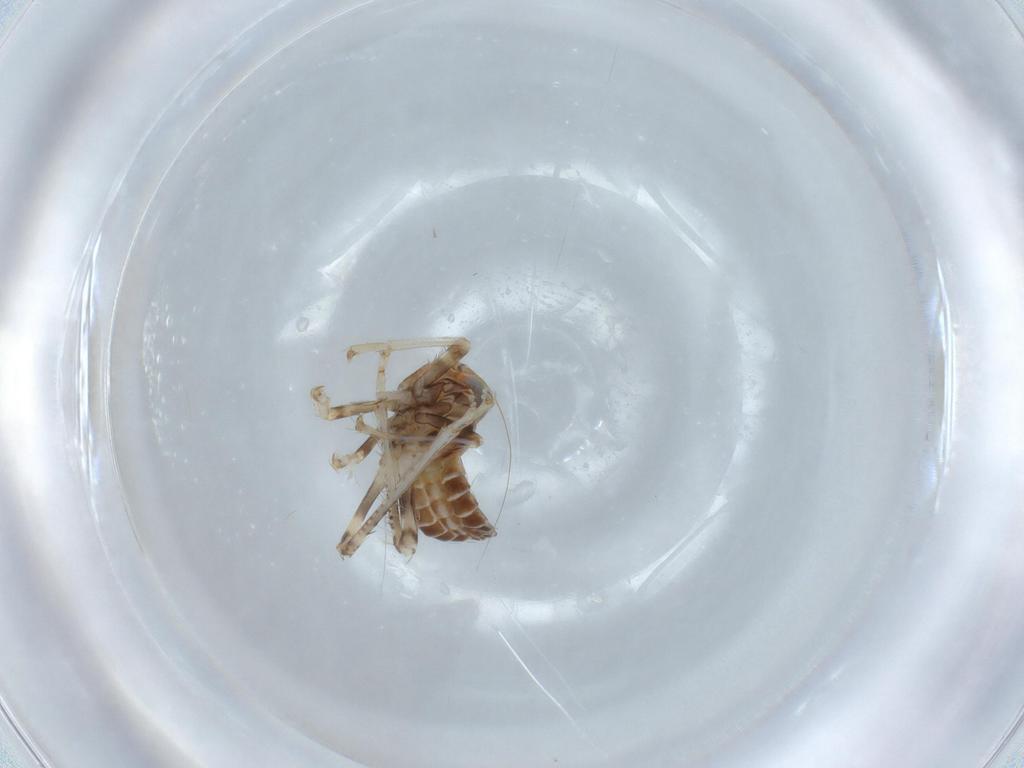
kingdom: Animalia
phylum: Arthropoda
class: Insecta
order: Hemiptera
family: Cicadellidae
